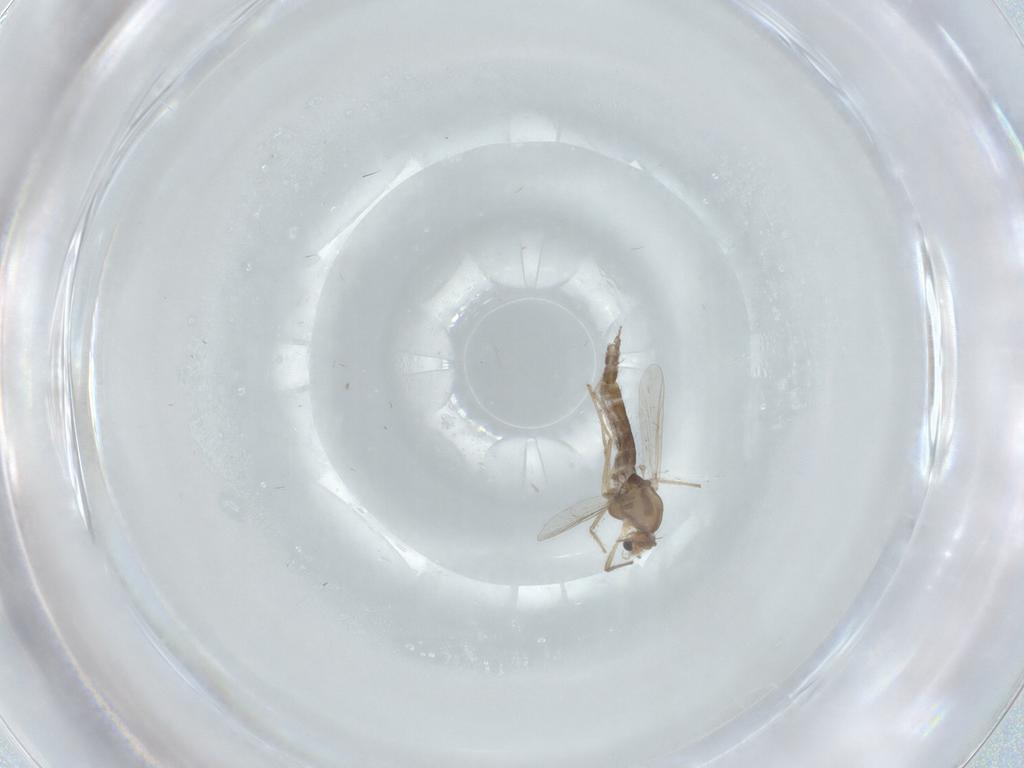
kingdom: Animalia
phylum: Arthropoda
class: Insecta
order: Diptera
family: Chironomidae
